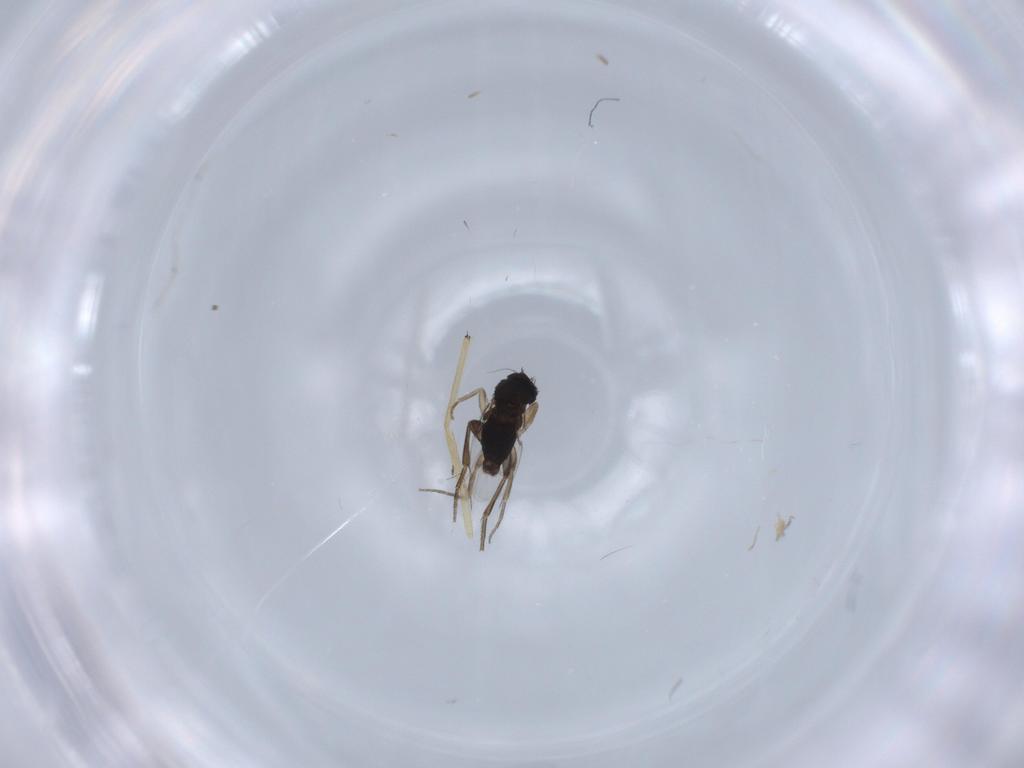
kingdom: Animalia
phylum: Arthropoda
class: Insecta
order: Diptera
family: Phoridae
